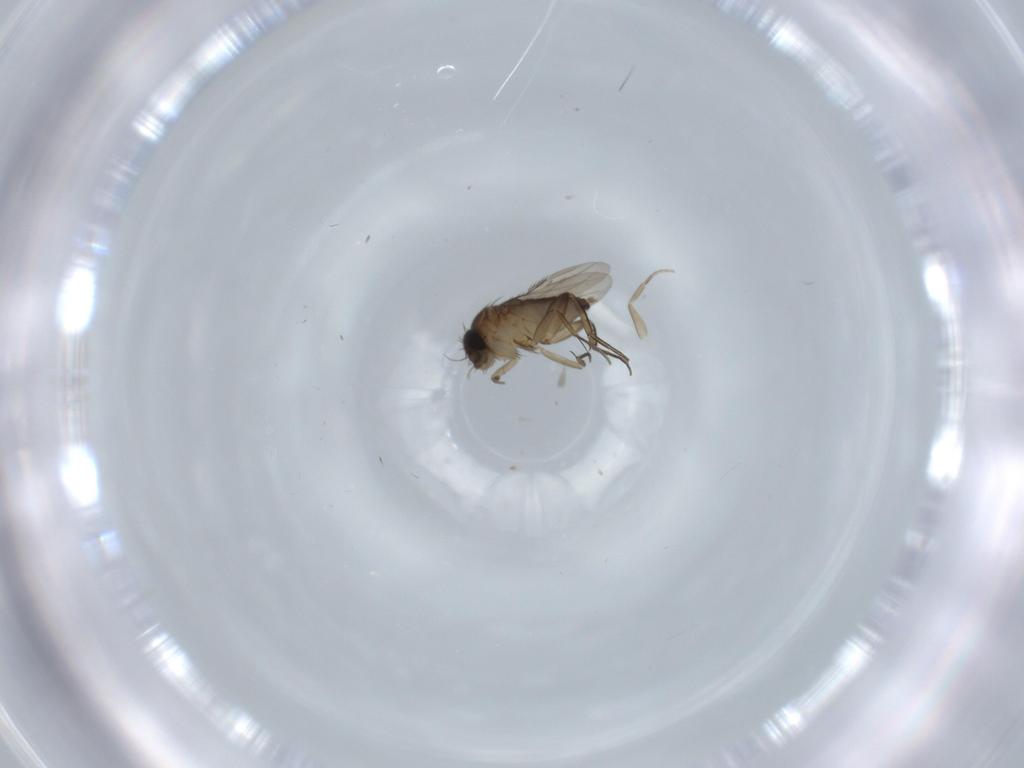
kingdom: Animalia
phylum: Arthropoda
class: Insecta
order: Diptera
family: Phoridae
